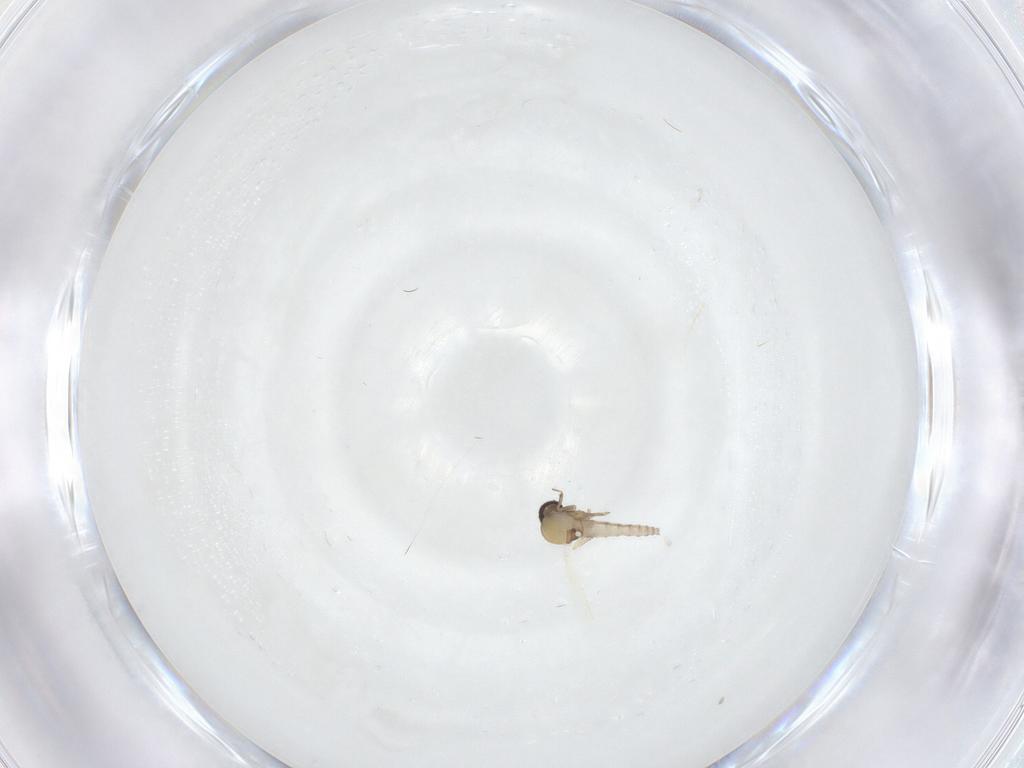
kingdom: Animalia
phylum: Arthropoda
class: Insecta
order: Diptera
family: Ceratopogonidae
